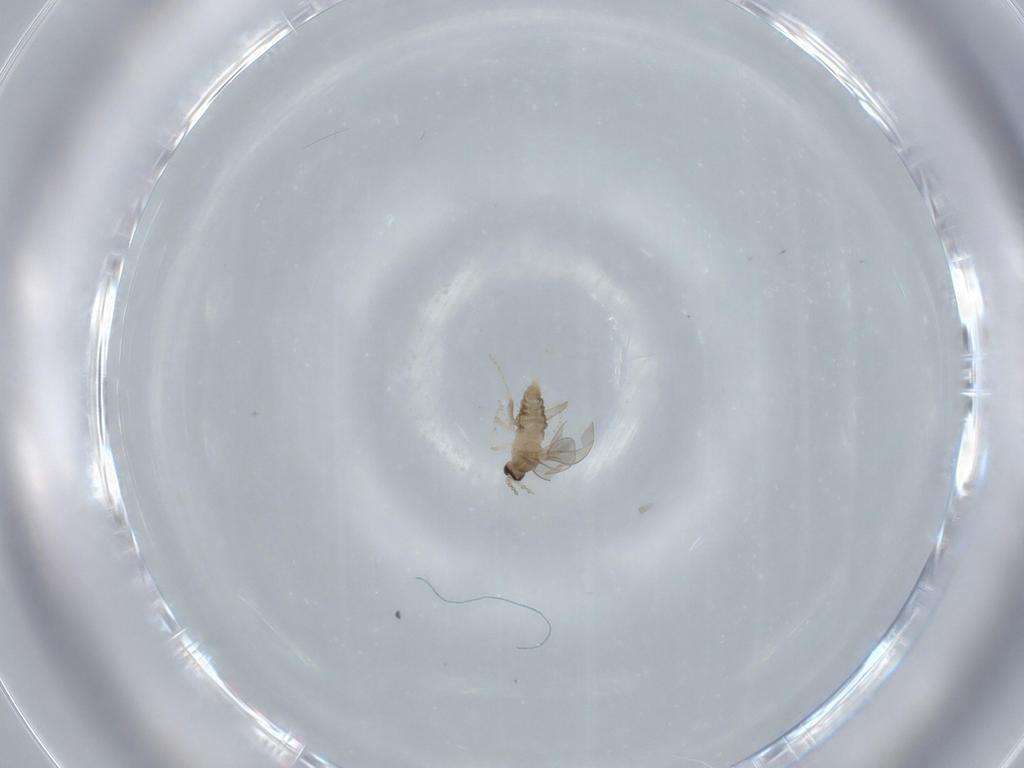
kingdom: Animalia
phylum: Arthropoda
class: Insecta
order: Diptera
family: Cecidomyiidae
